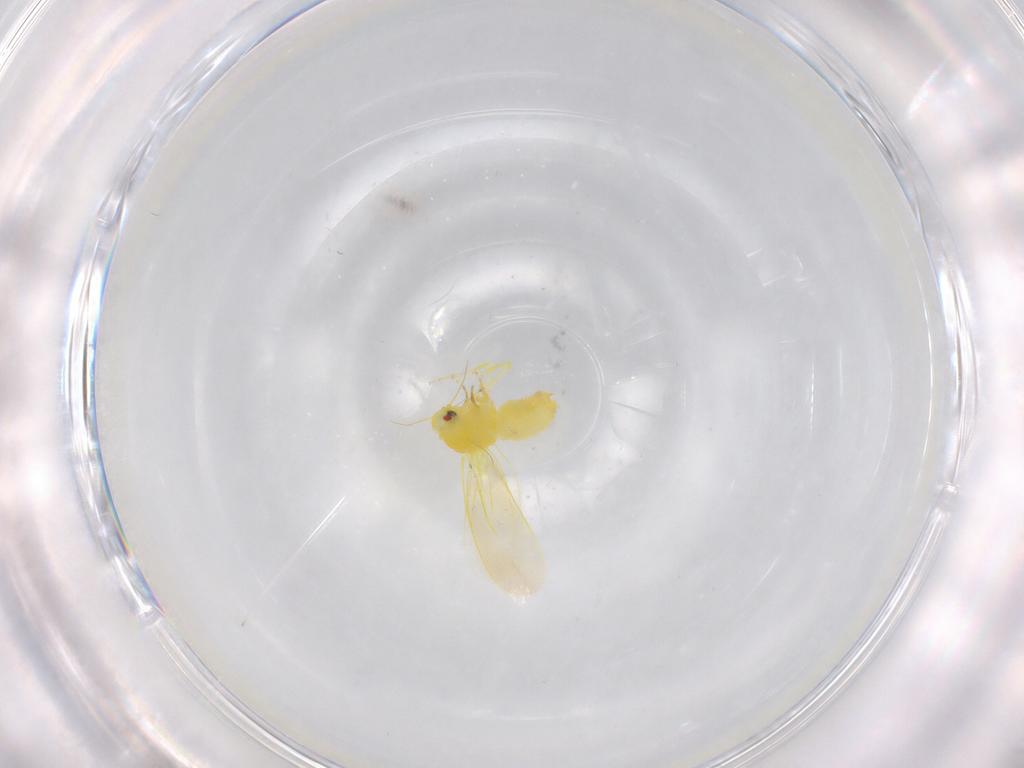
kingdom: Animalia
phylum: Arthropoda
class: Insecta
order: Hemiptera
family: Aleyrodidae
